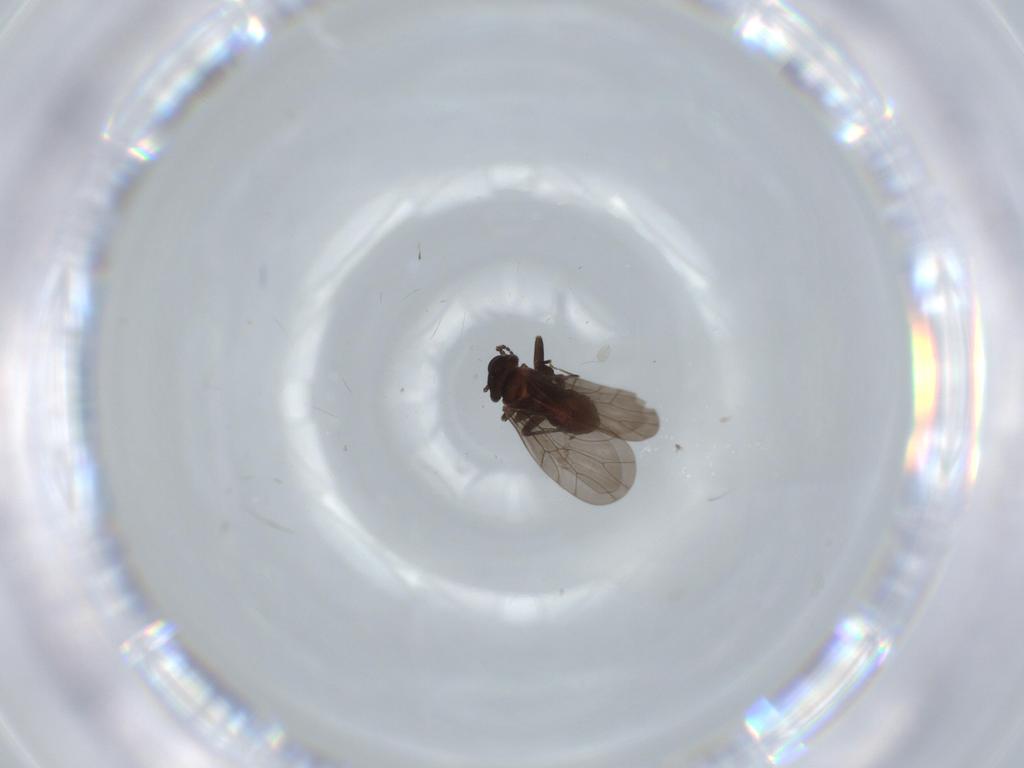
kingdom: Animalia
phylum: Arthropoda
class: Insecta
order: Psocodea
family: Lepidopsocidae
